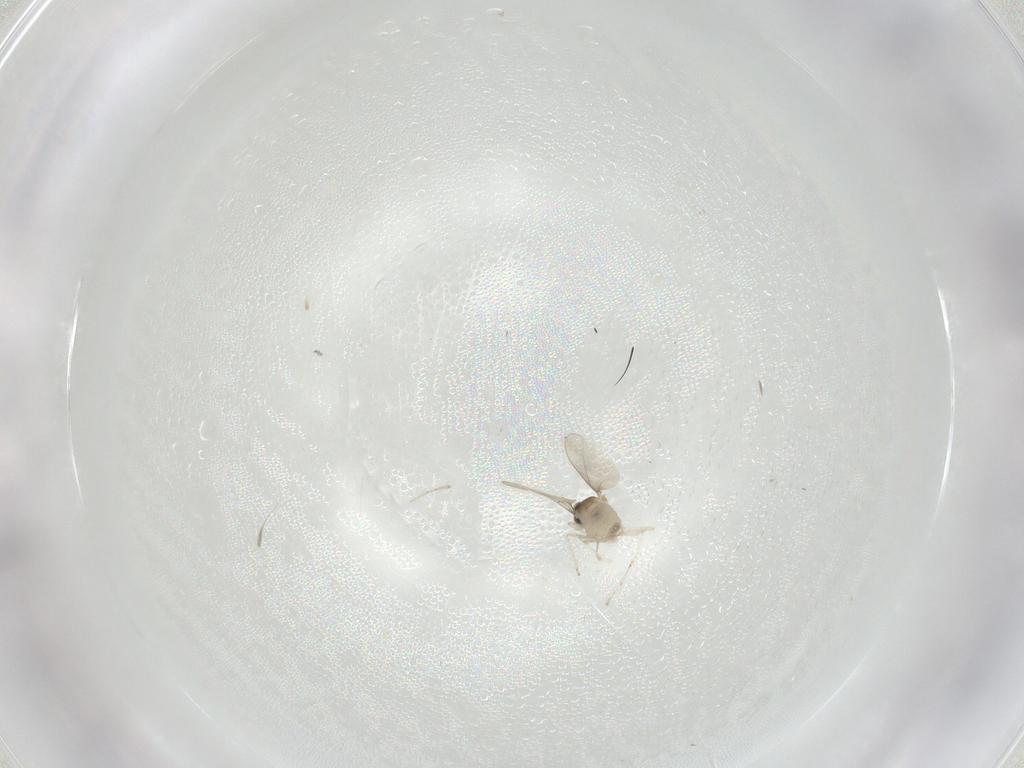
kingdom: Animalia
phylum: Arthropoda
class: Insecta
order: Diptera
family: Cecidomyiidae
